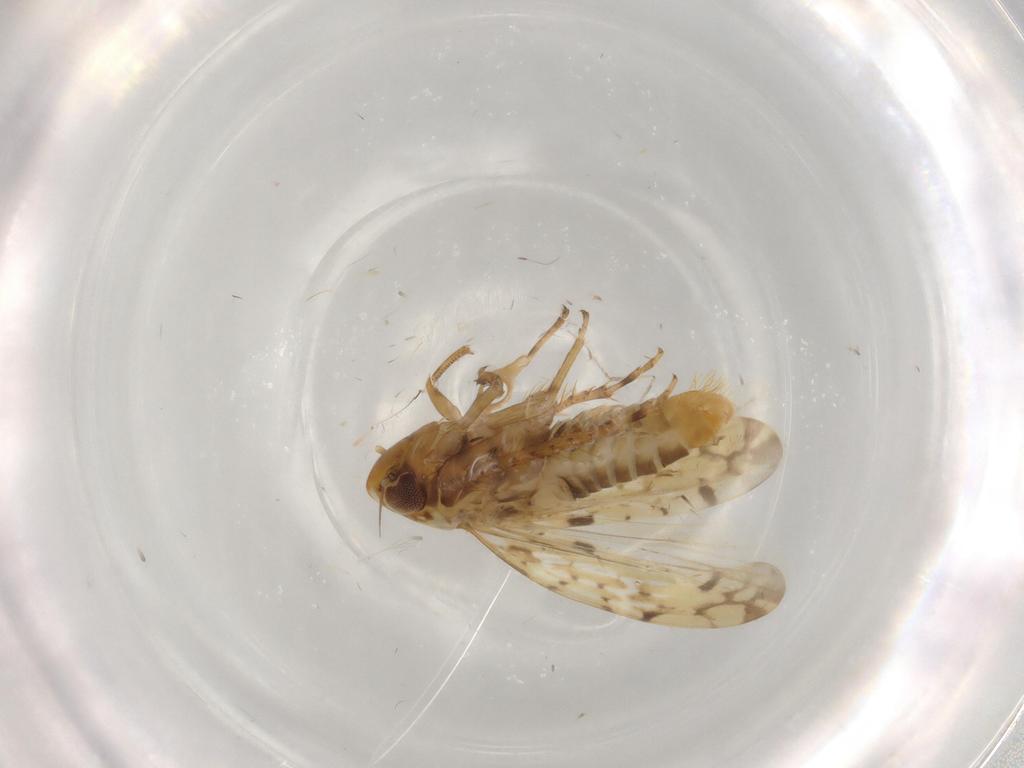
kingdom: Animalia
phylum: Arthropoda
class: Insecta
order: Hemiptera
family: Cicadellidae
